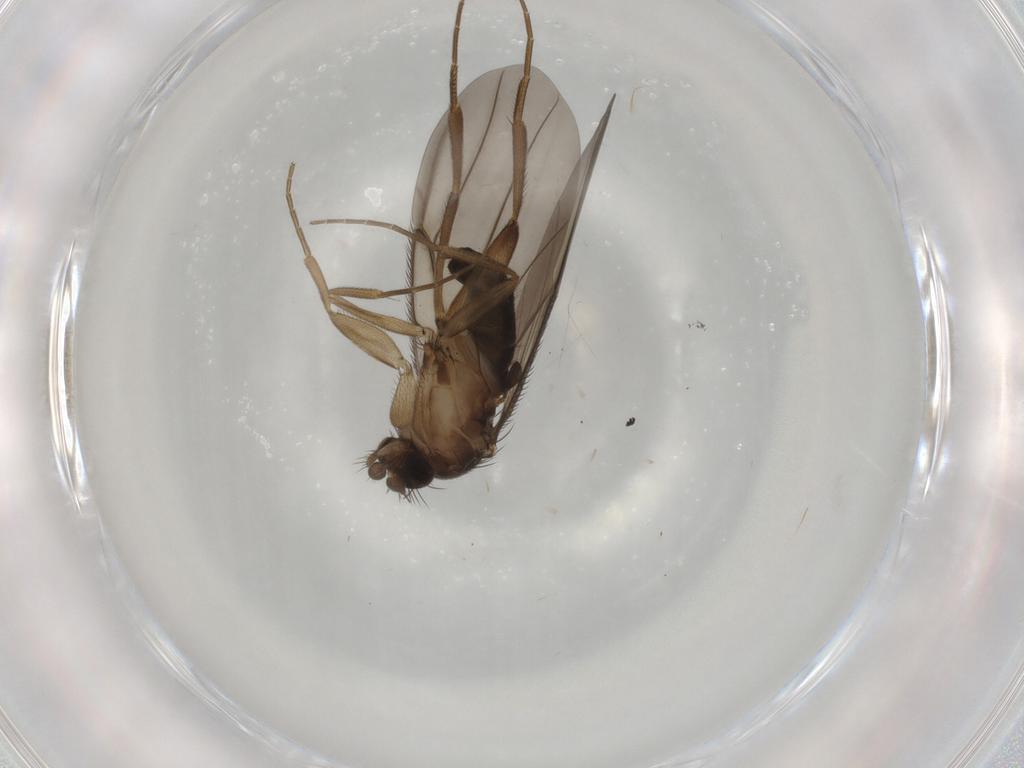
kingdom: Animalia
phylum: Arthropoda
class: Insecta
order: Diptera
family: Phoridae
